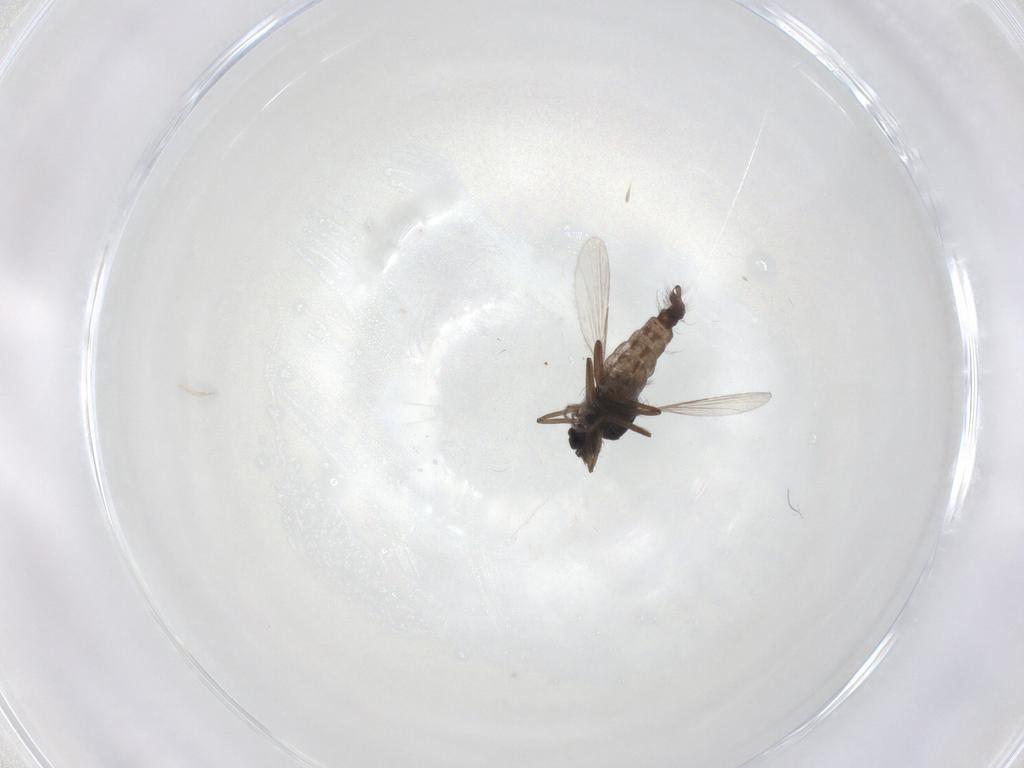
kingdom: Animalia
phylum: Arthropoda
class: Insecta
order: Diptera
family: Ceratopogonidae
